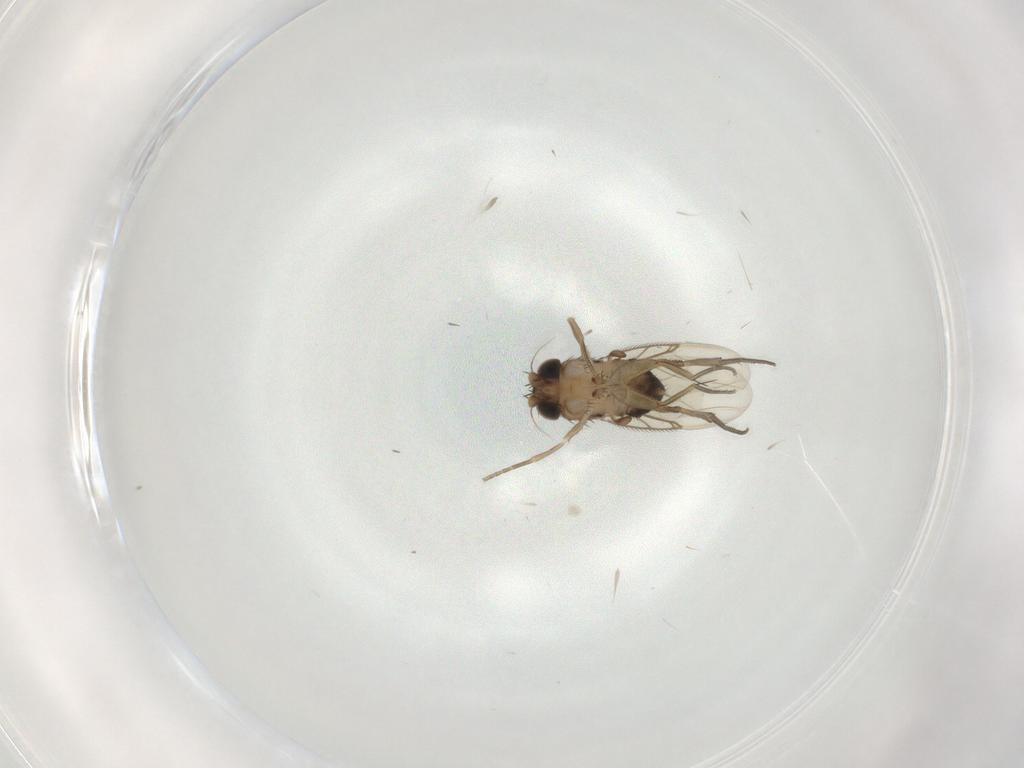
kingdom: Animalia
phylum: Arthropoda
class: Insecta
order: Diptera
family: Phoridae
